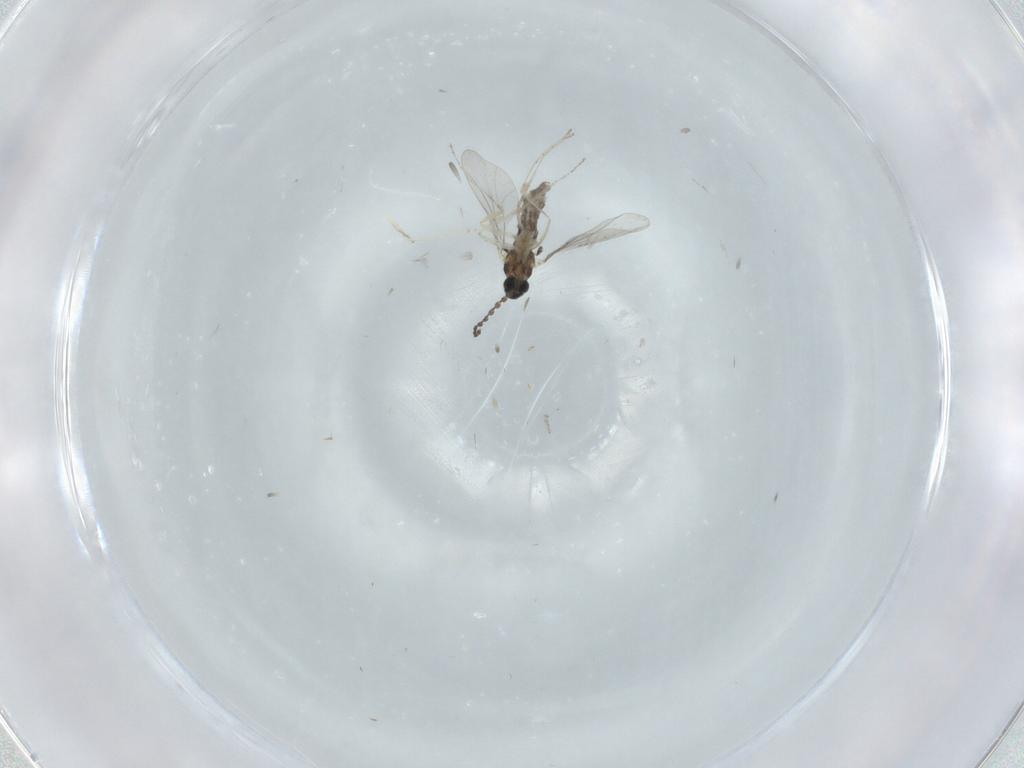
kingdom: Animalia
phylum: Arthropoda
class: Insecta
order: Diptera
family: Cecidomyiidae
